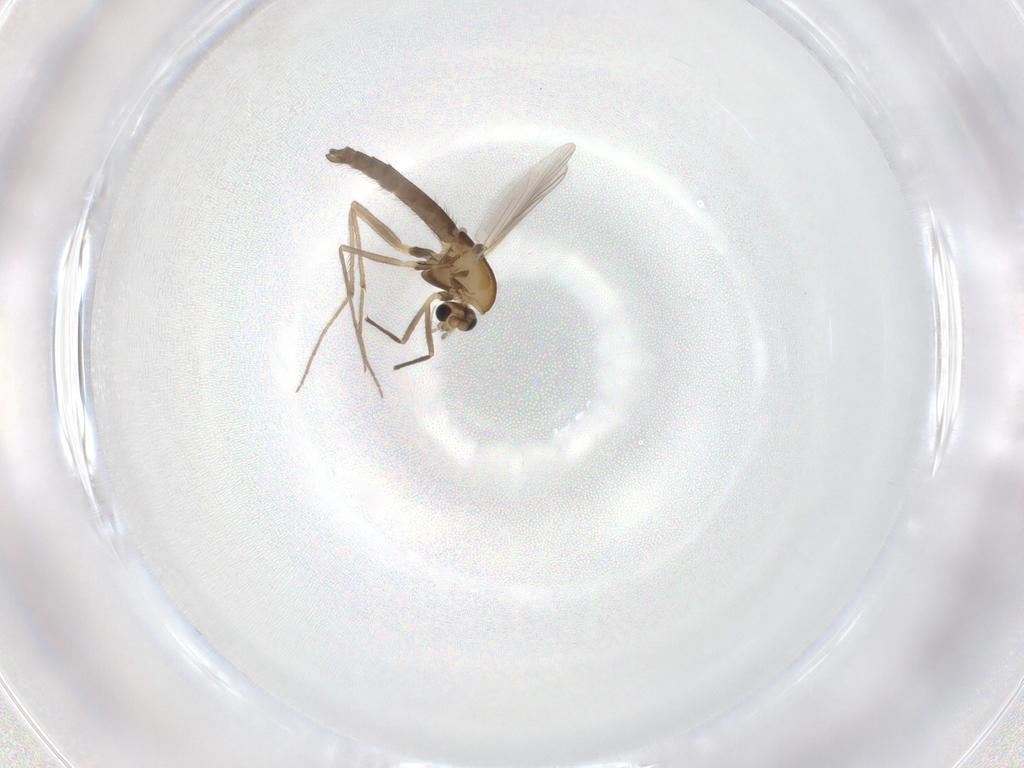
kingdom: Animalia
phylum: Arthropoda
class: Insecta
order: Diptera
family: Chironomidae
